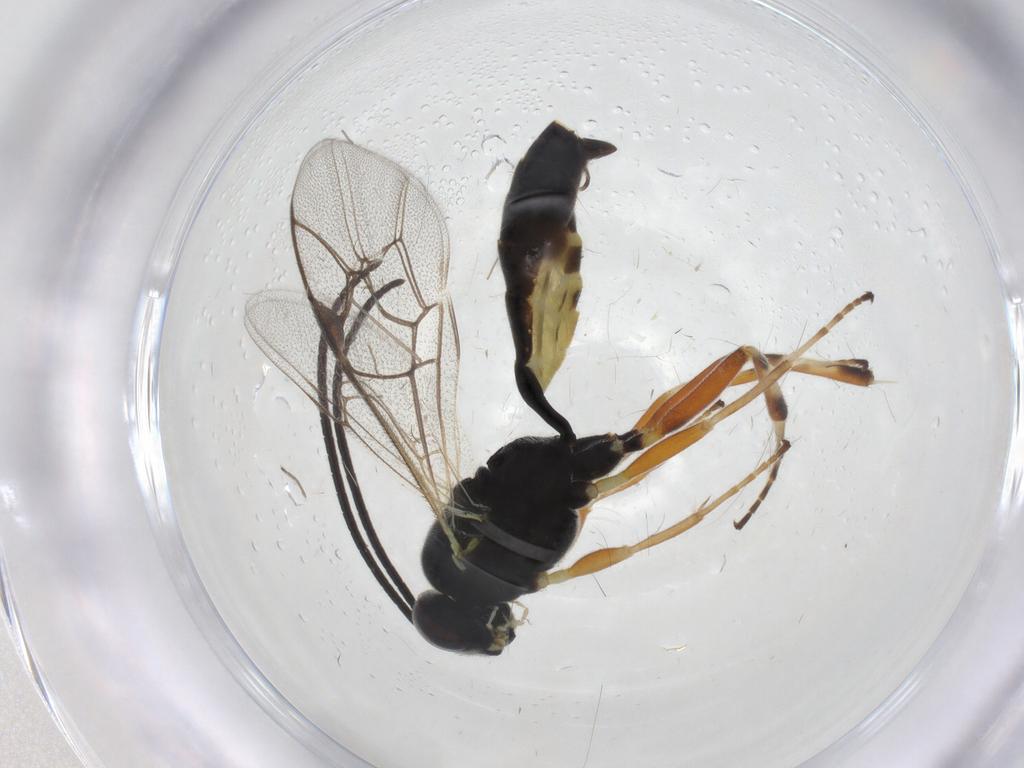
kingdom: Animalia
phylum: Arthropoda
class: Insecta
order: Hymenoptera
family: Ichneumonidae
